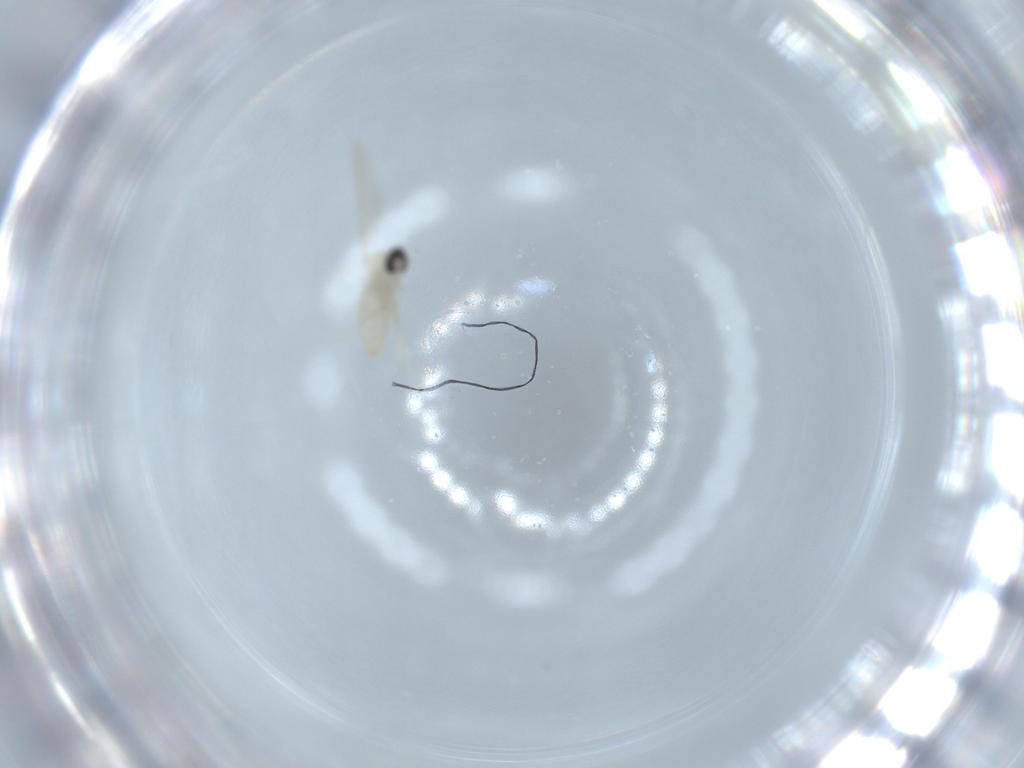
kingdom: Animalia
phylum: Arthropoda
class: Insecta
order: Diptera
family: Cecidomyiidae
